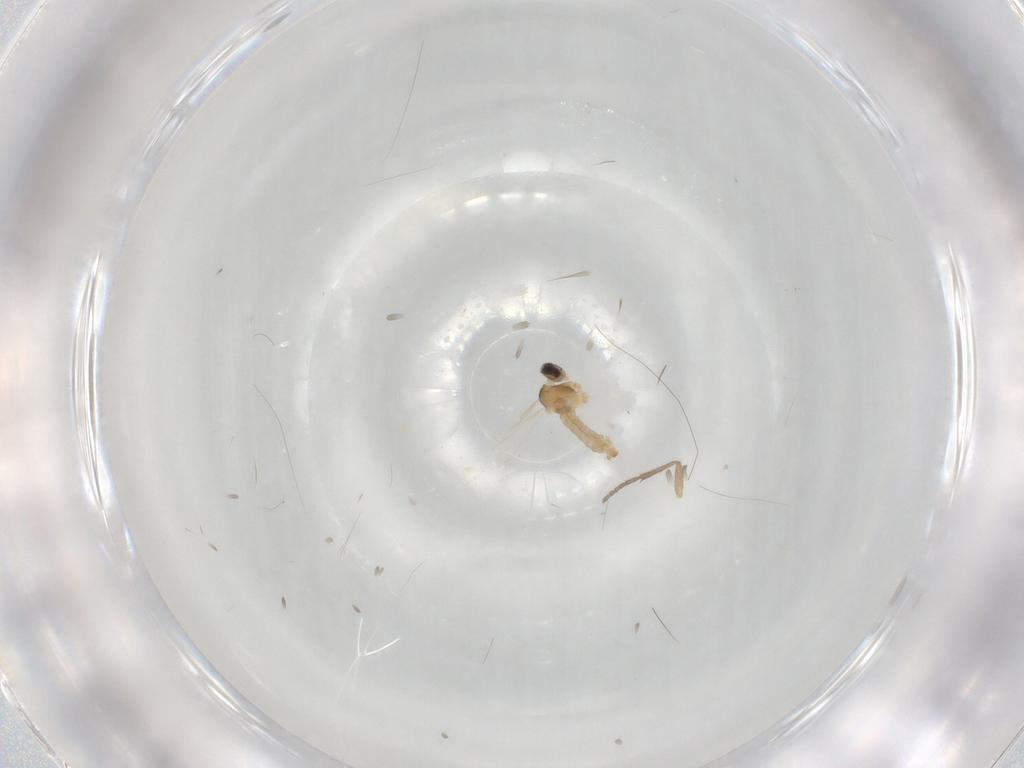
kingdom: Animalia
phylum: Arthropoda
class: Insecta
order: Diptera
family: Cecidomyiidae
